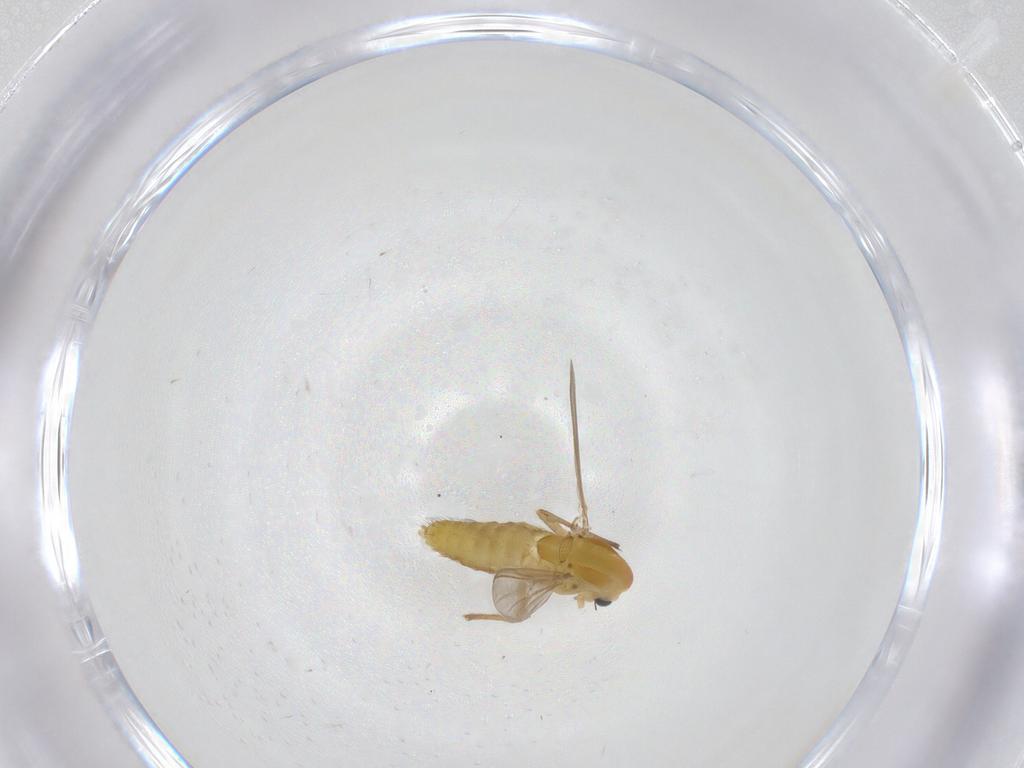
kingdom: Animalia
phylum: Arthropoda
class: Insecta
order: Diptera
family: Chironomidae
